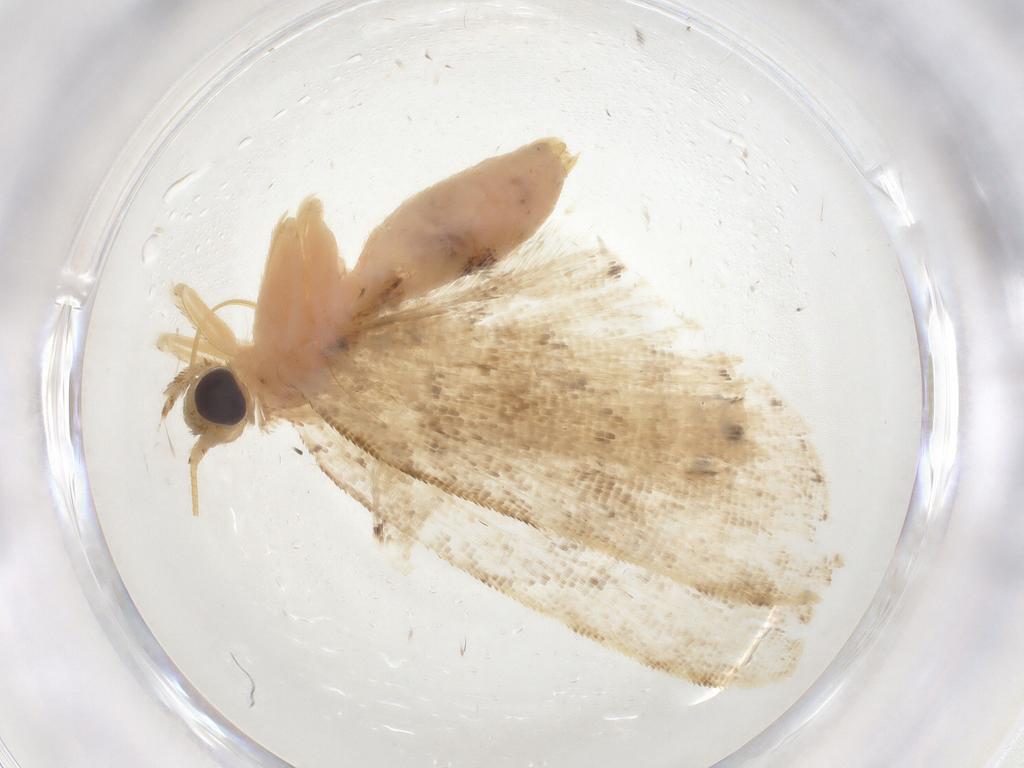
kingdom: Animalia
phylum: Arthropoda
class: Insecta
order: Lepidoptera
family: Erebidae
